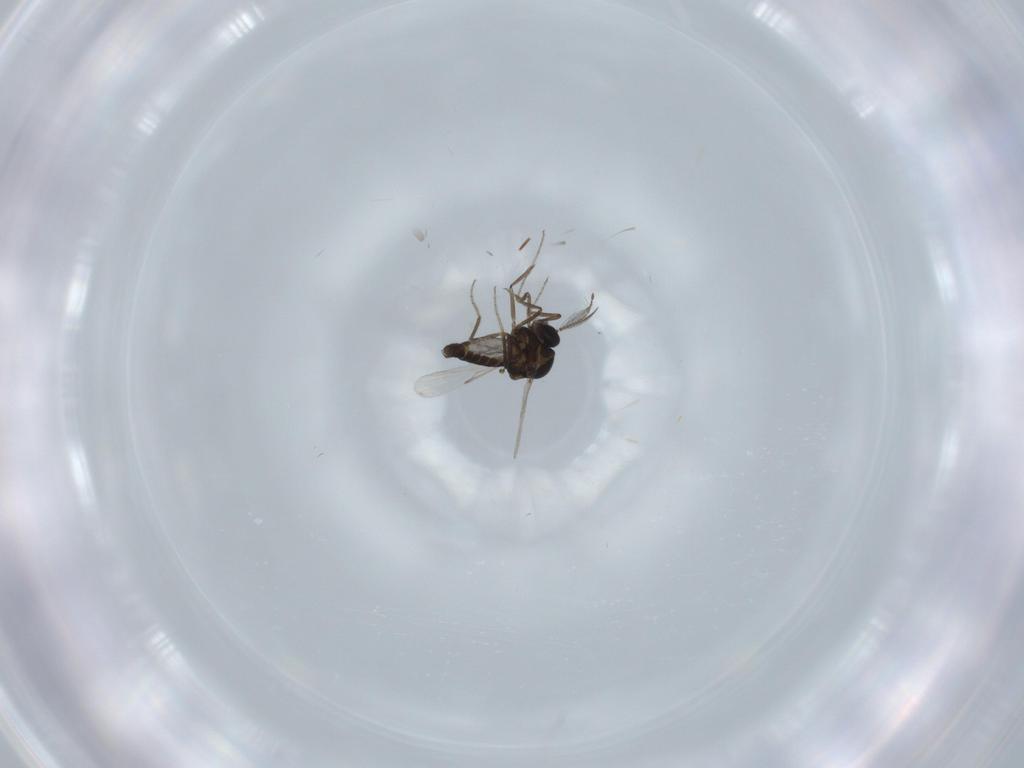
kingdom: Animalia
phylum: Arthropoda
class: Insecta
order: Diptera
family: Ceratopogonidae
